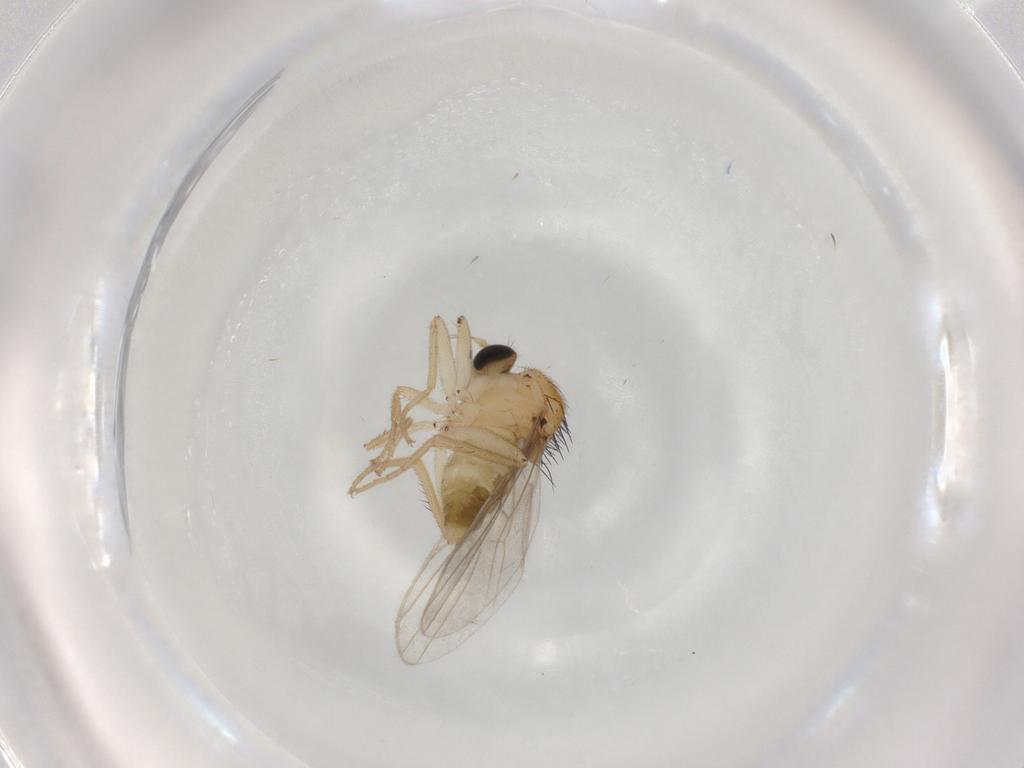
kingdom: Animalia
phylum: Arthropoda
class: Insecta
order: Diptera
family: Hybotidae
